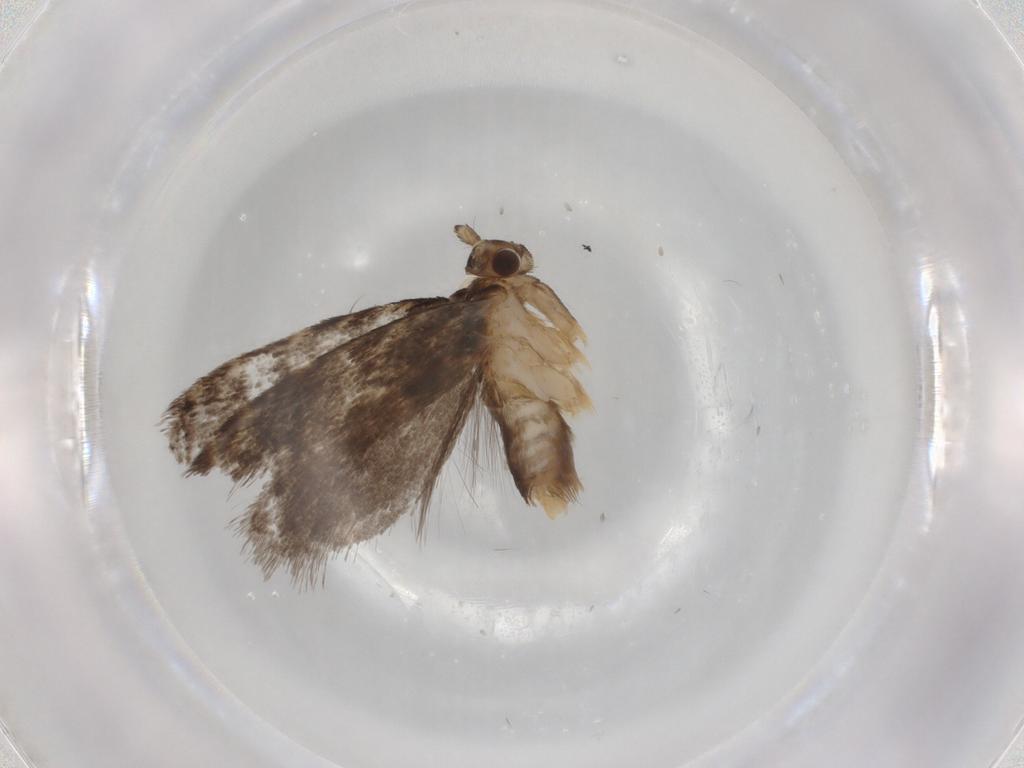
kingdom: Animalia
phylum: Arthropoda
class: Insecta
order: Lepidoptera
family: Dryadaulidae
